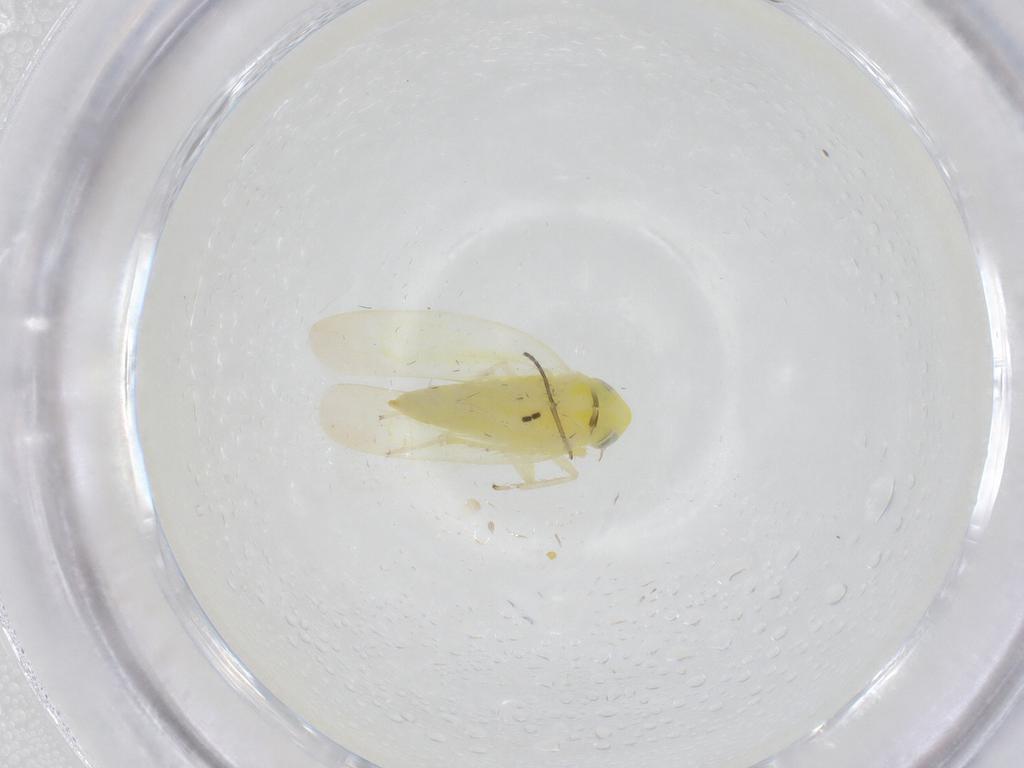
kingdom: Animalia
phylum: Arthropoda
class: Insecta
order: Hemiptera
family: Cicadellidae
